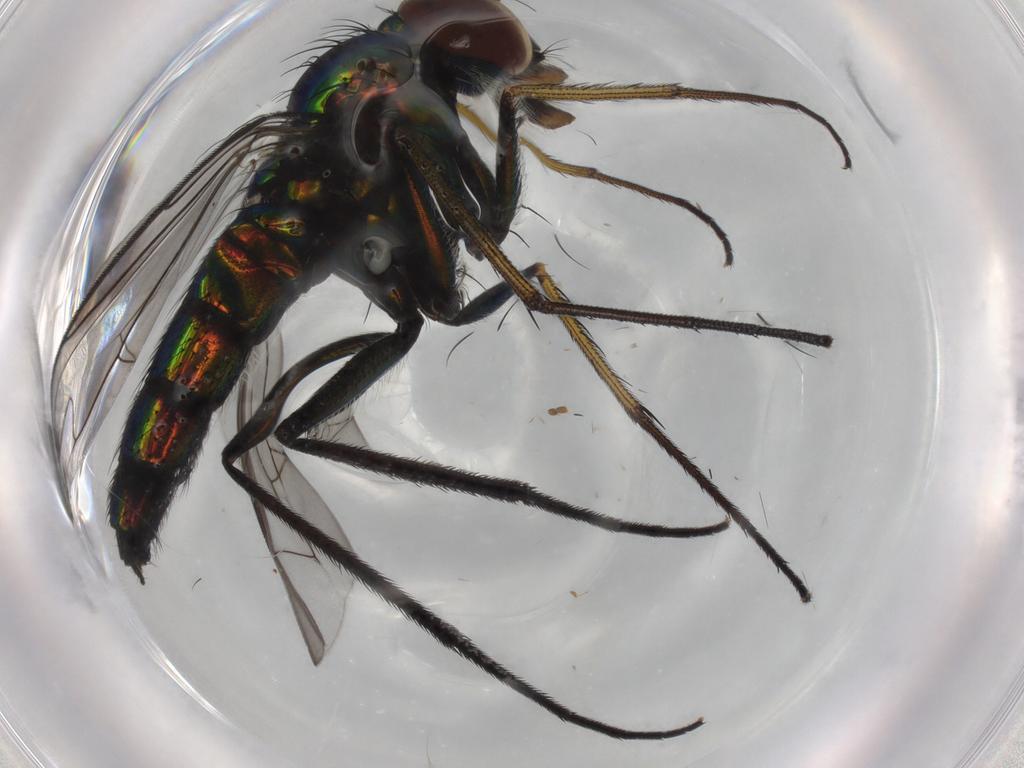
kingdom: Animalia
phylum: Arthropoda
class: Insecta
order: Diptera
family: Dolichopodidae
